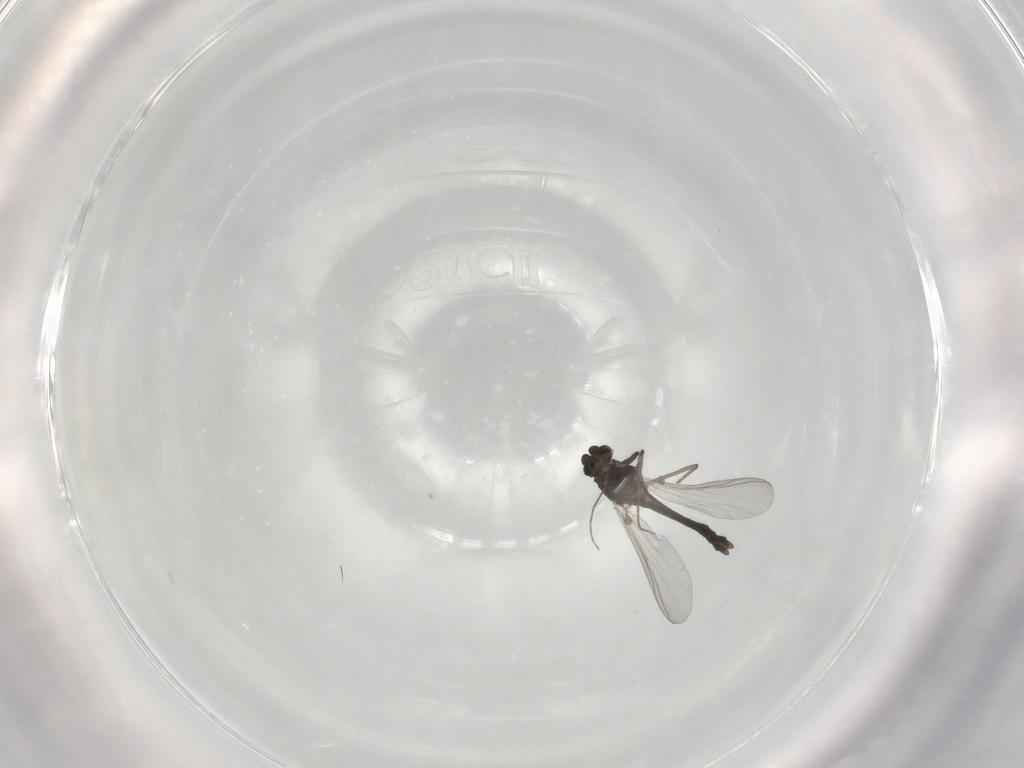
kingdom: Animalia
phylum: Arthropoda
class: Insecta
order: Diptera
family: Chironomidae
